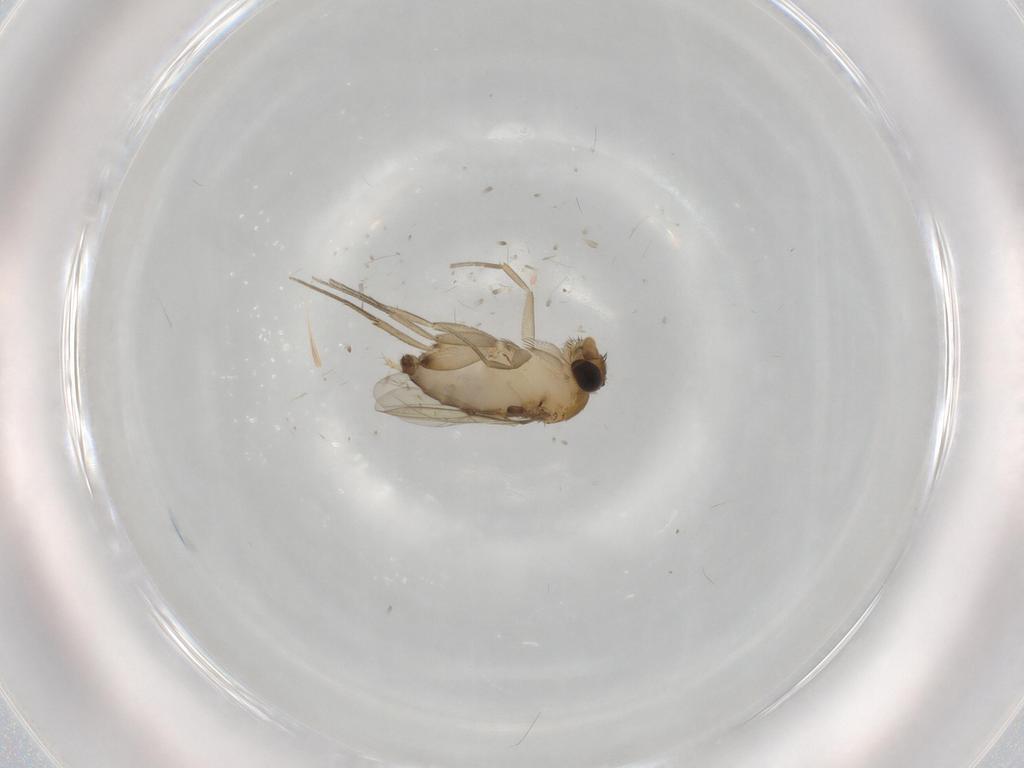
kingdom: Animalia
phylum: Arthropoda
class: Insecta
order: Diptera
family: Phoridae
